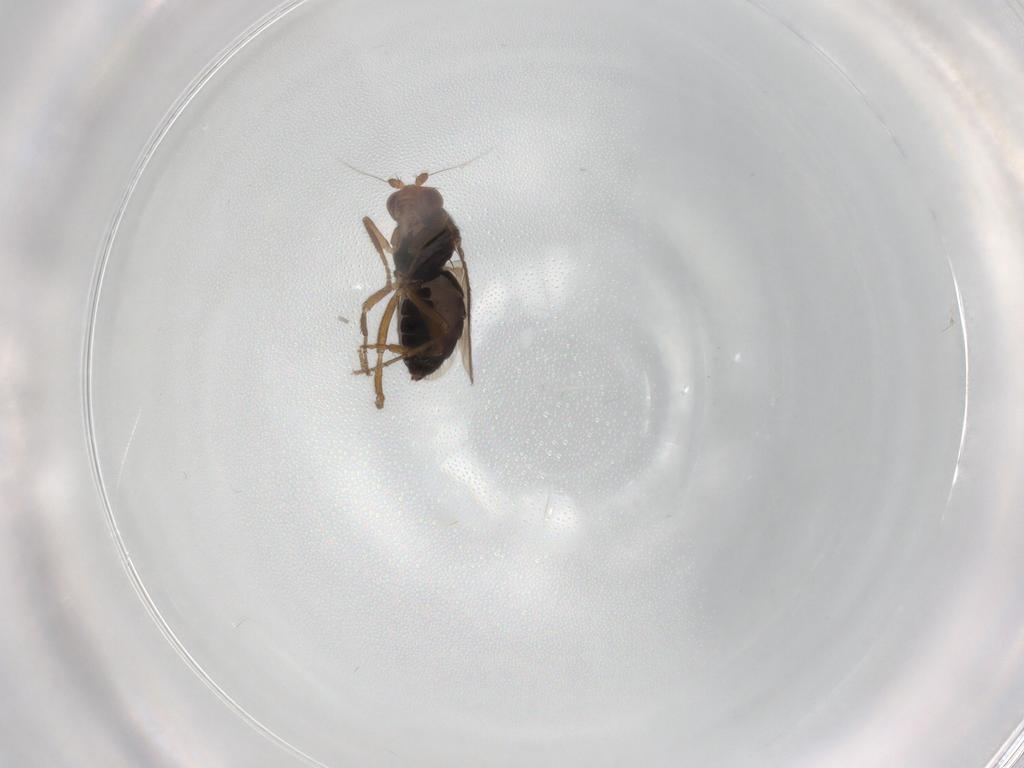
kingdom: Animalia
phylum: Arthropoda
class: Insecta
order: Diptera
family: Sphaeroceridae
